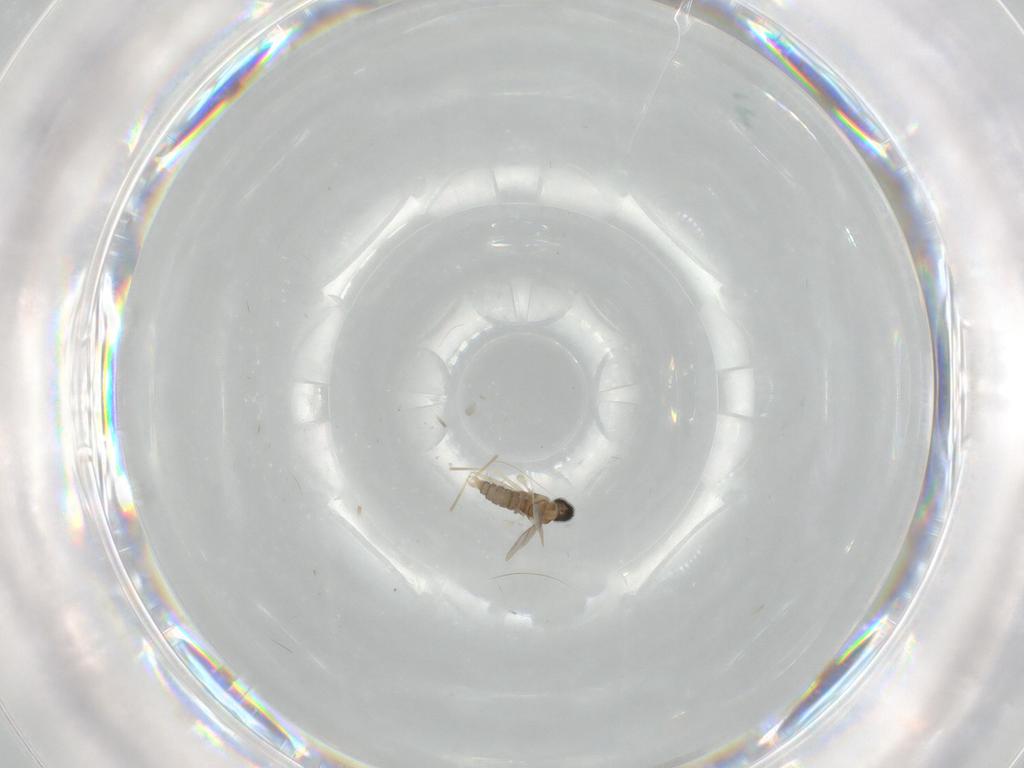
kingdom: Animalia
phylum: Arthropoda
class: Insecta
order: Diptera
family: Cecidomyiidae
